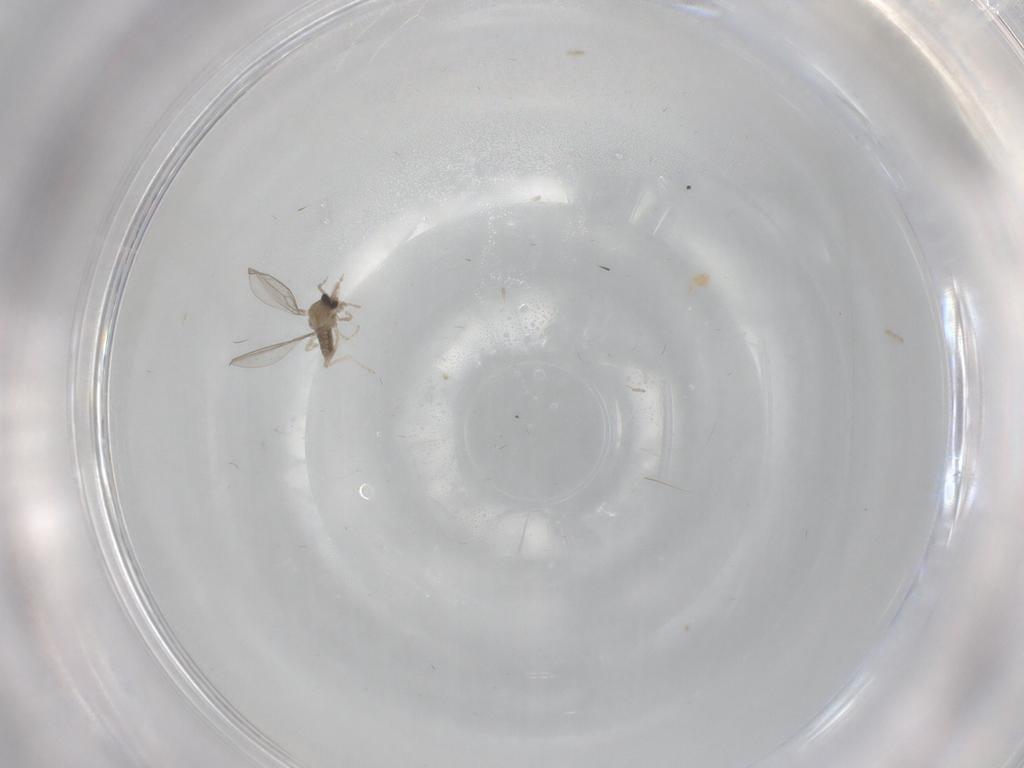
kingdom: Animalia
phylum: Arthropoda
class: Insecta
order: Diptera
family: Cecidomyiidae
